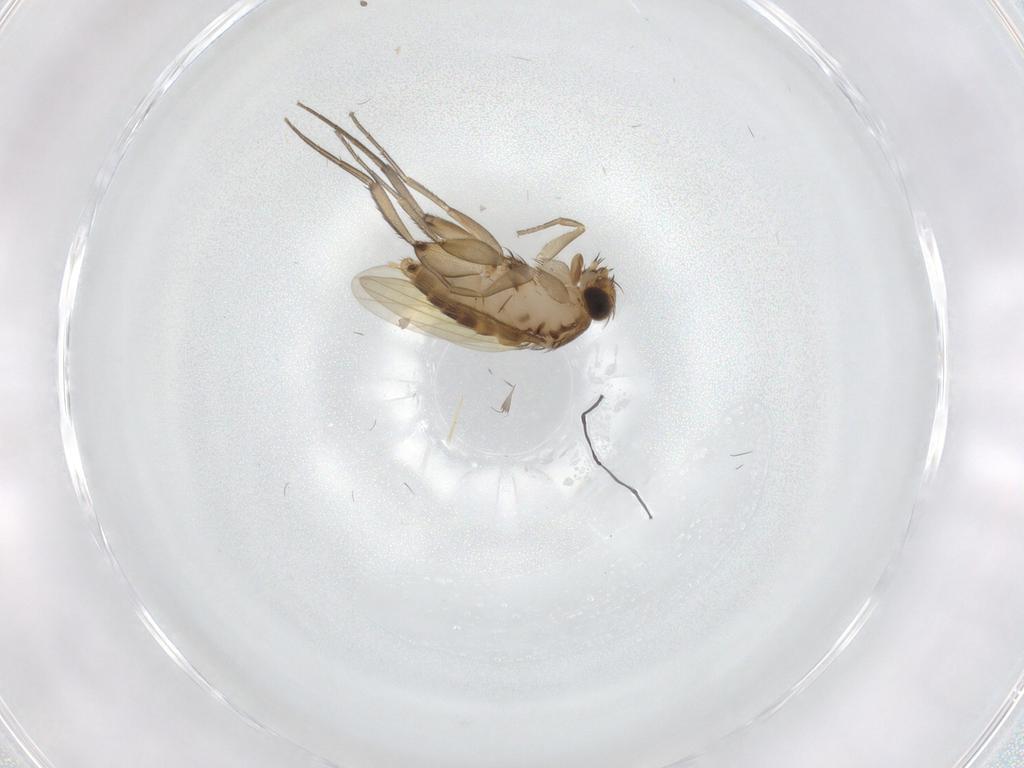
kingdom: Animalia
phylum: Arthropoda
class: Insecta
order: Diptera
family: Phoridae
